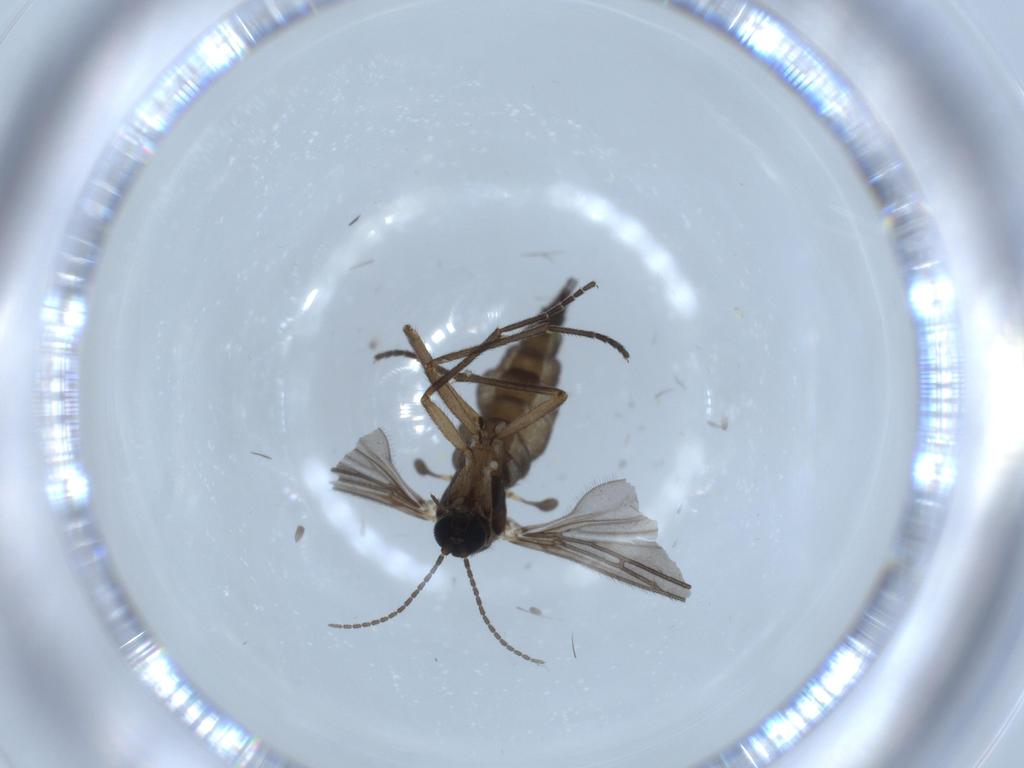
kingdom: Animalia
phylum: Arthropoda
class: Insecta
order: Diptera
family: Sciaridae
